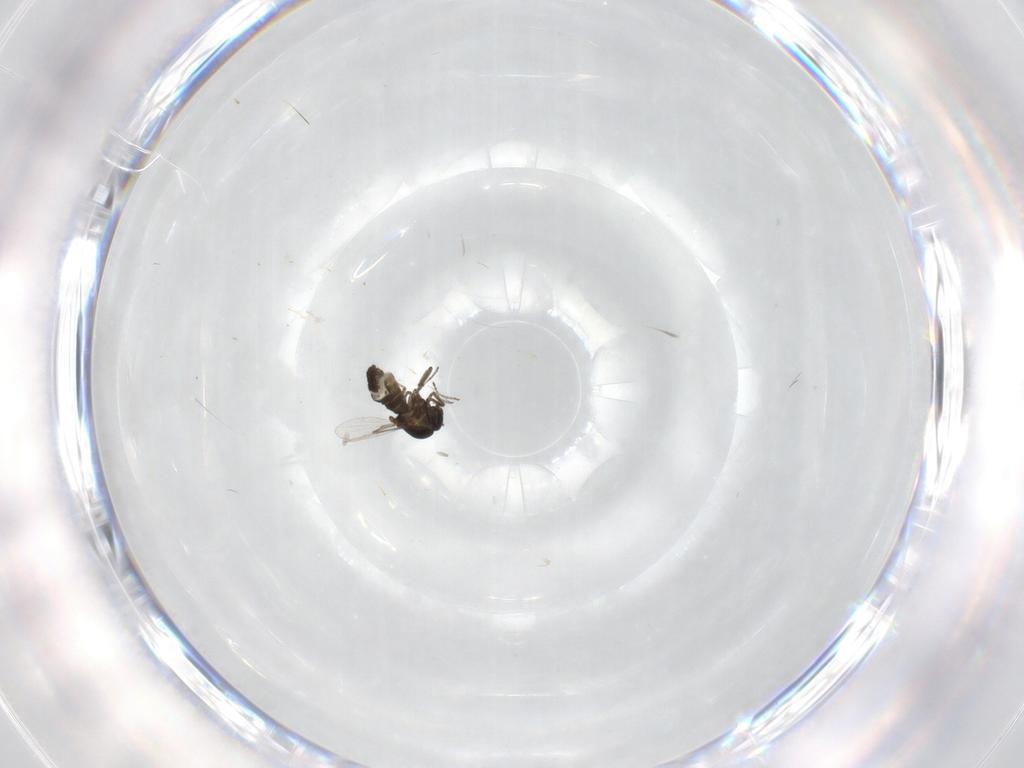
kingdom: Animalia
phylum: Arthropoda
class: Insecta
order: Diptera
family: Ceratopogonidae
